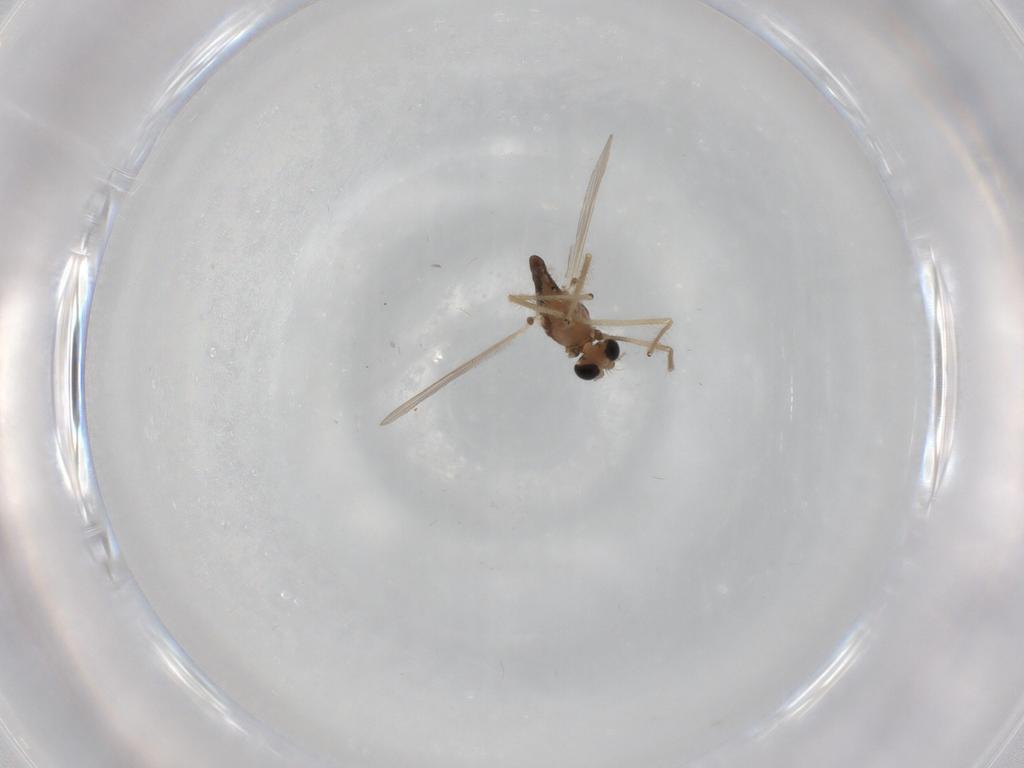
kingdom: Animalia
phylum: Arthropoda
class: Insecta
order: Diptera
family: Chironomidae
